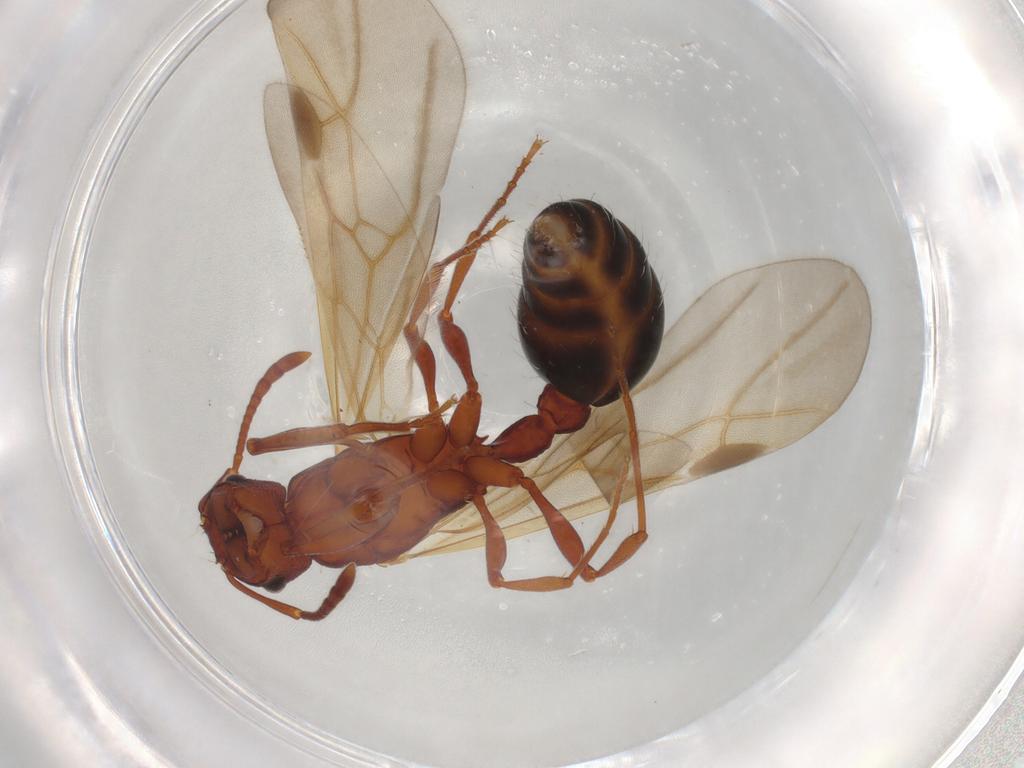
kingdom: Animalia
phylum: Arthropoda
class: Insecta
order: Hymenoptera
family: Formicidae
